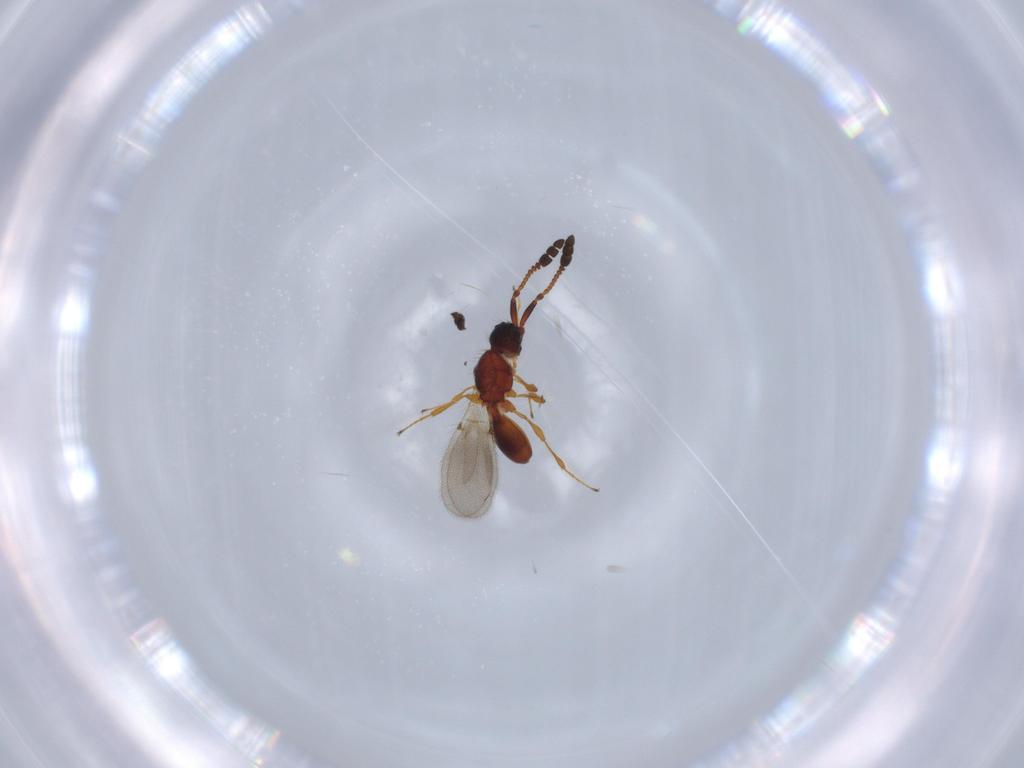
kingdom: Animalia
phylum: Arthropoda
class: Insecta
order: Hymenoptera
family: Diapriidae
